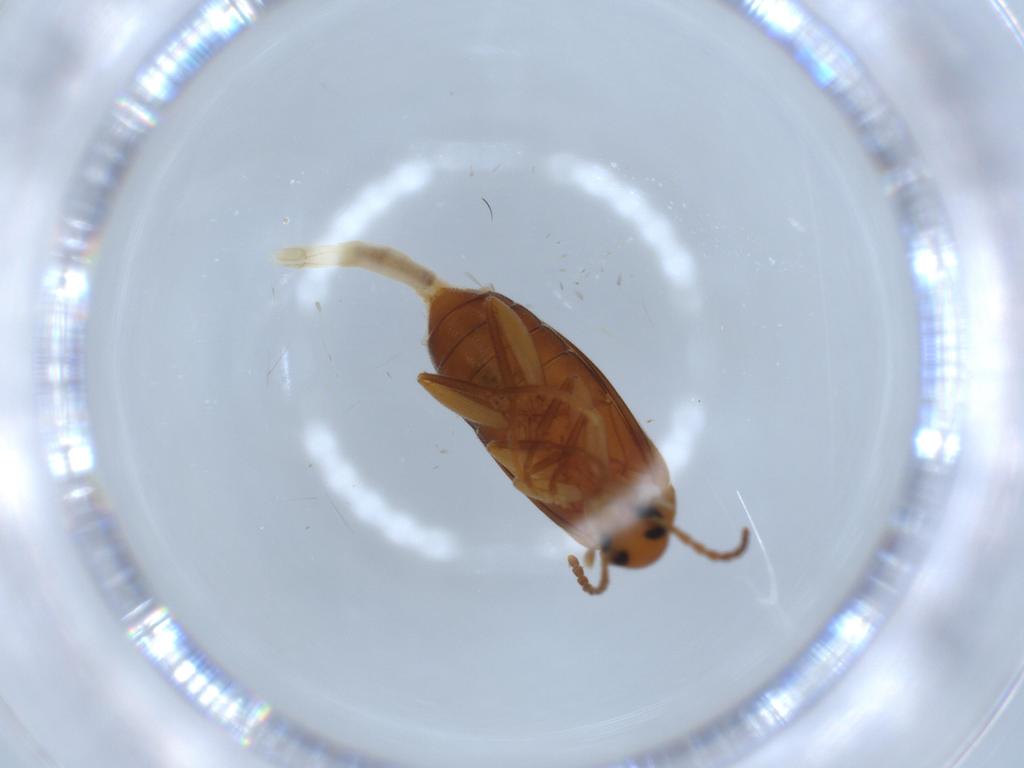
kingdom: Animalia
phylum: Arthropoda
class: Insecta
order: Coleoptera
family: Scraptiidae
